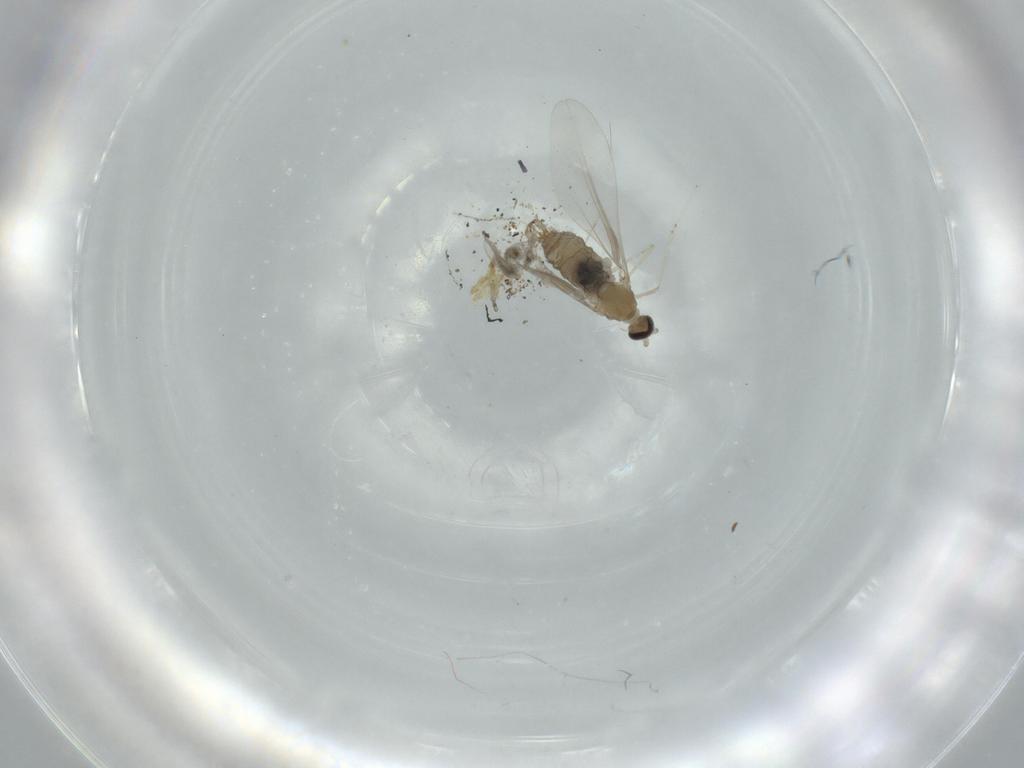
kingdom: Animalia
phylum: Arthropoda
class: Insecta
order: Diptera
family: Cecidomyiidae
